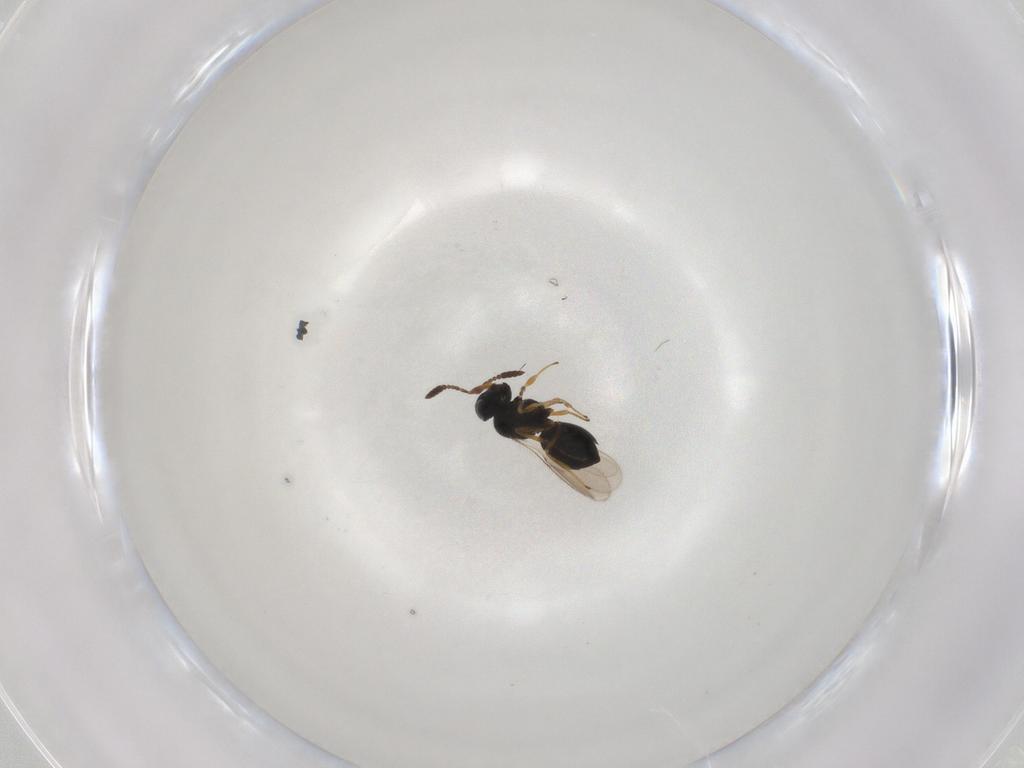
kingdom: Animalia
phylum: Arthropoda
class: Insecta
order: Hymenoptera
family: Scelionidae
